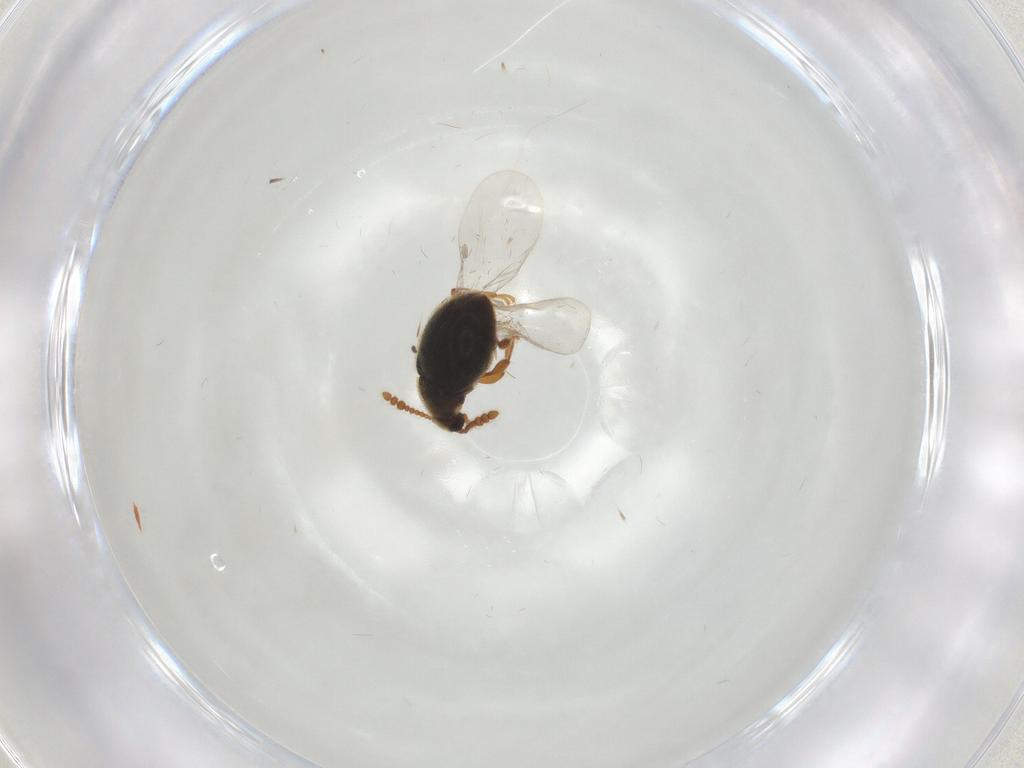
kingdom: Animalia
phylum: Arthropoda
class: Insecta
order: Coleoptera
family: Staphylinidae
